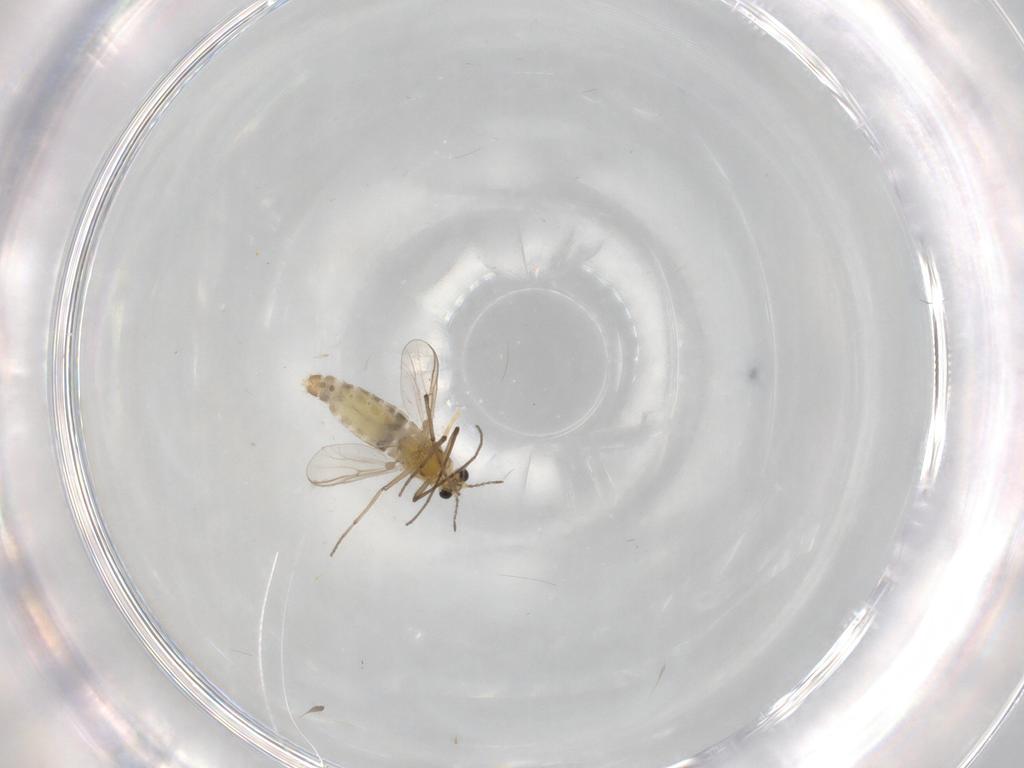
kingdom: Animalia
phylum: Arthropoda
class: Insecta
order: Diptera
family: Chironomidae
